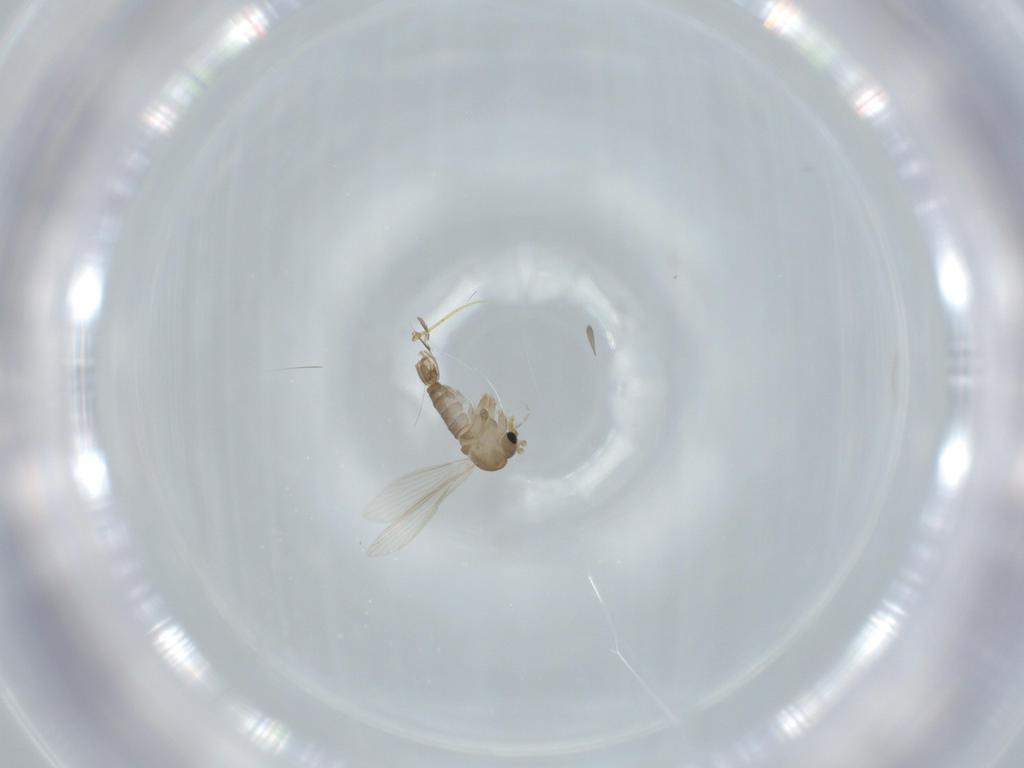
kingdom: Animalia
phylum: Arthropoda
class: Insecta
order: Diptera
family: Psychodidae
